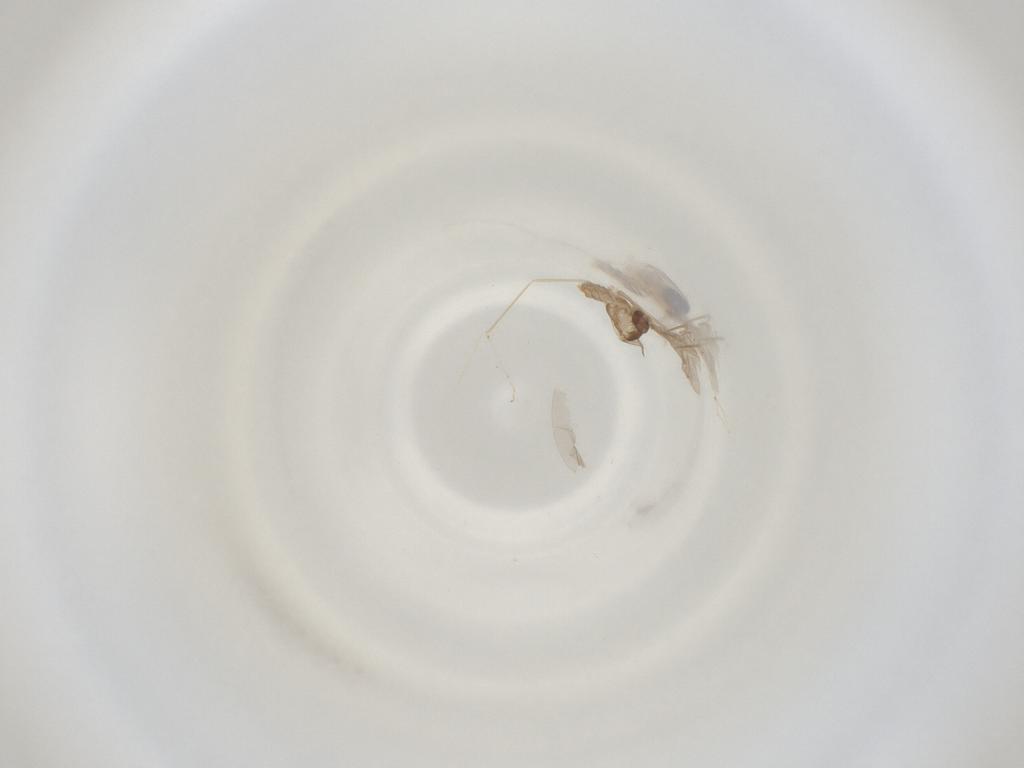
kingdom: Animalia
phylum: Arthropoda
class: Insecta
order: Diptera
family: Cecidomyiidae
